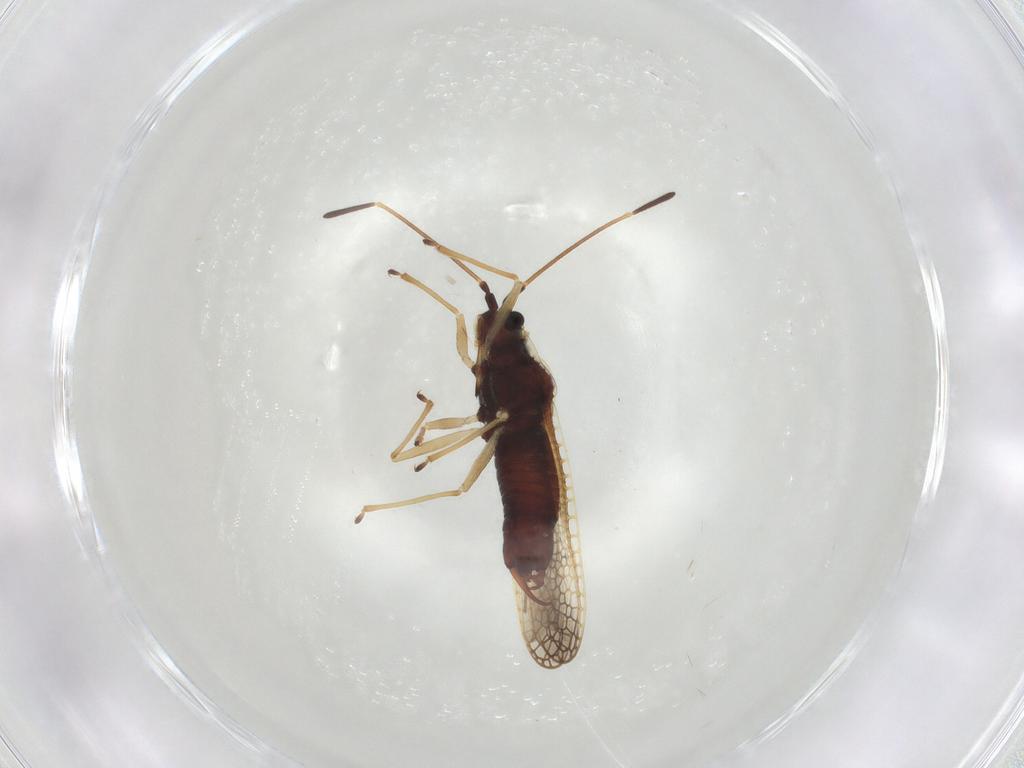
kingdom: Animalia
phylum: Arthropoda
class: Insecta
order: Hemiptera
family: Tingidae
